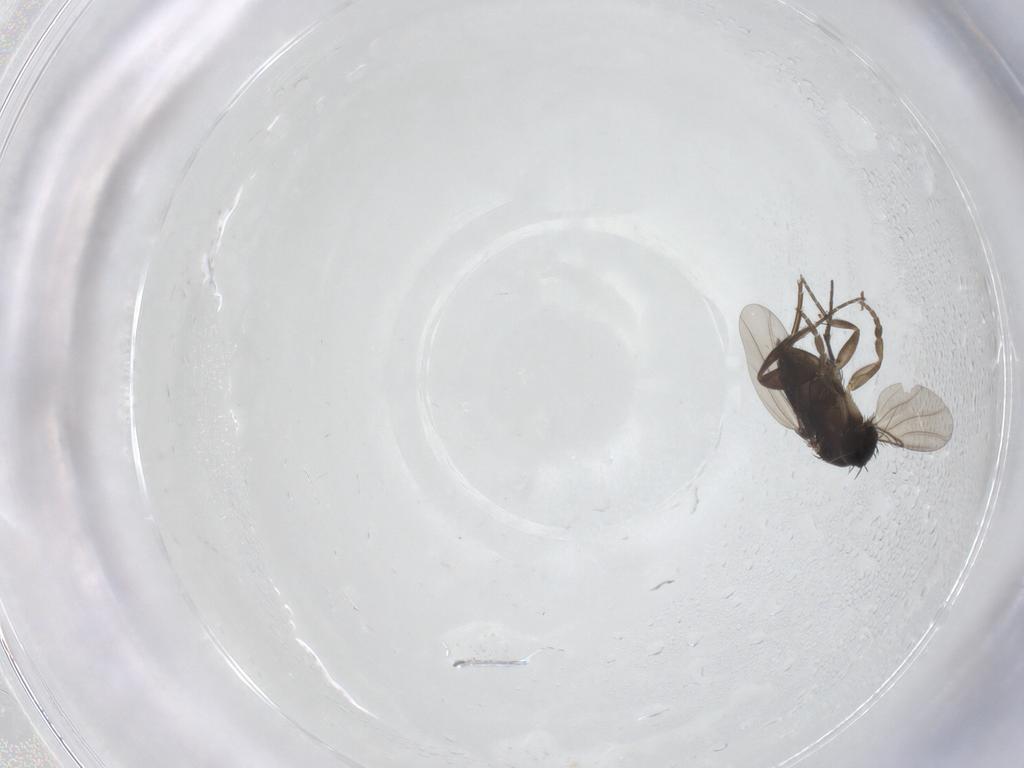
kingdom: Animalia
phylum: Arthropoda
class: Insecta
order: Diptera
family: Phoridae
